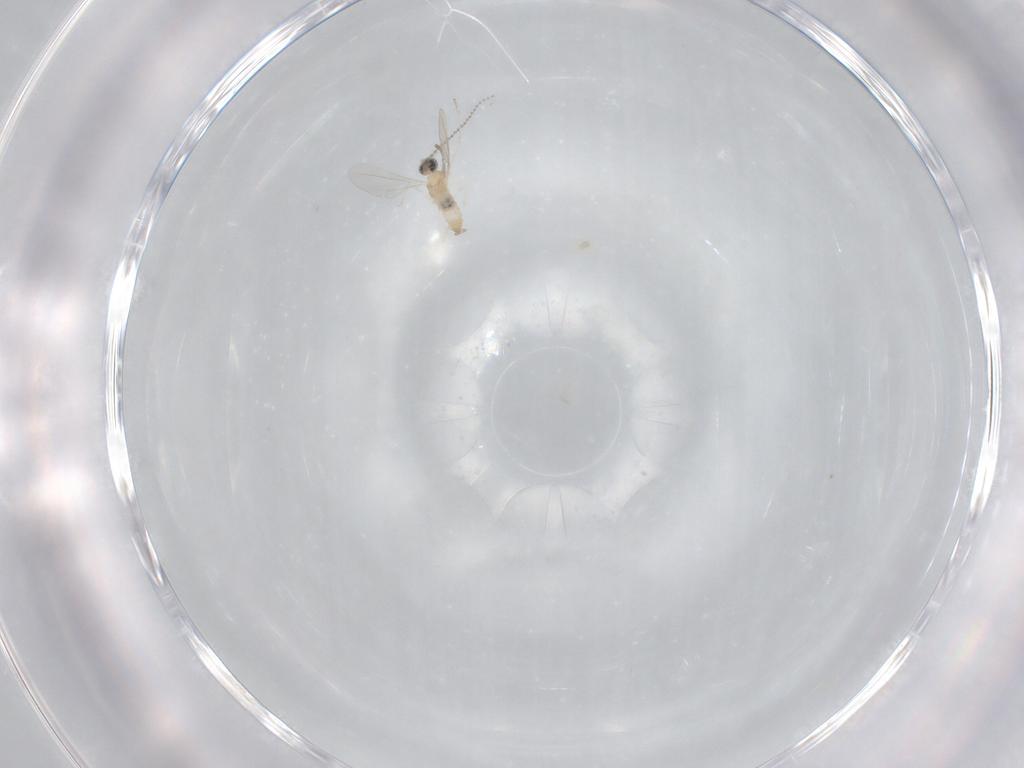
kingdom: Animalia
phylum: Arthropoda
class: Insecta
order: Diptera
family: Cecidomyiidae
